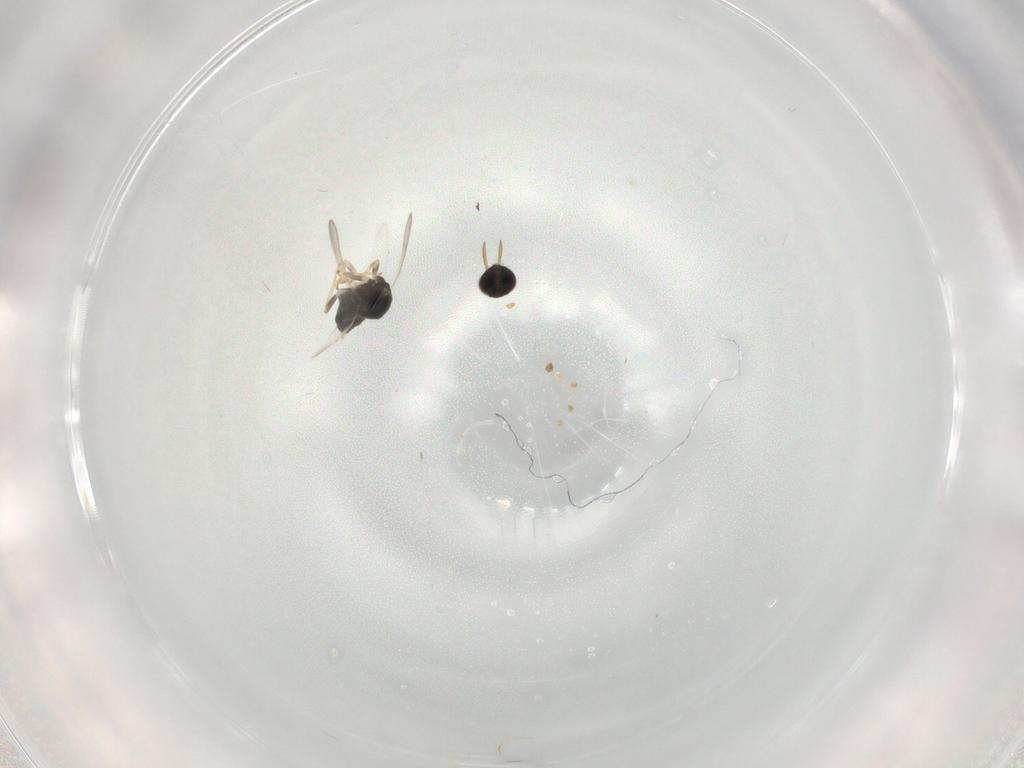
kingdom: Animalia
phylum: Arthropoda
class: Insecta
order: Hymenoptera
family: Aphelinidae
